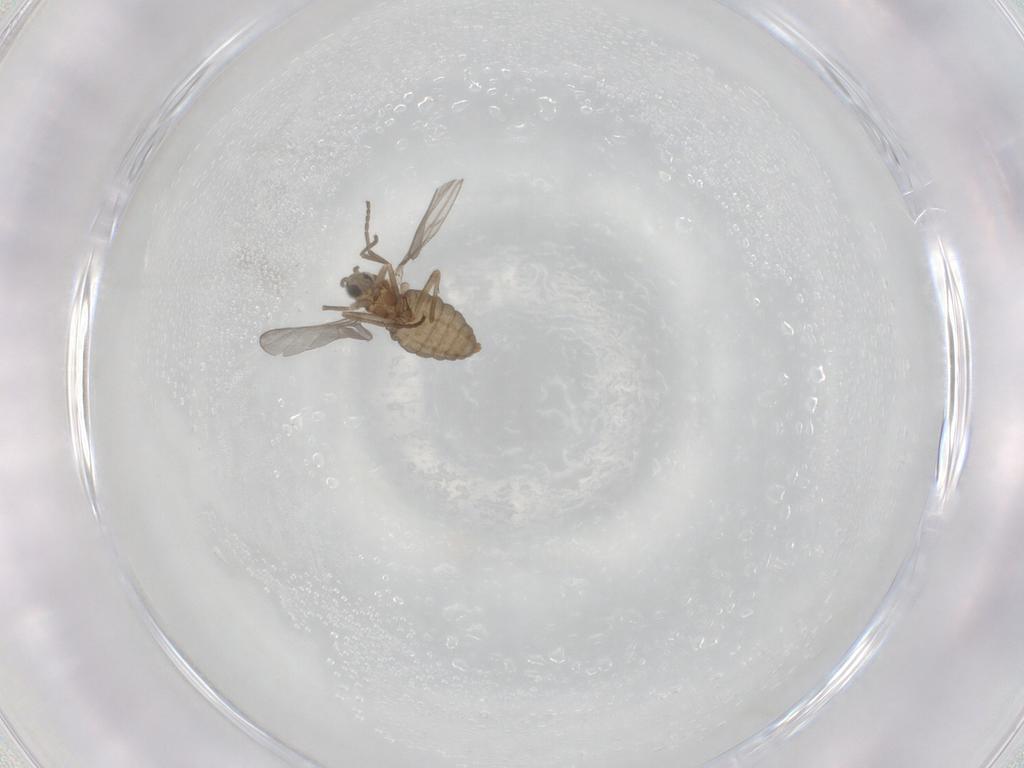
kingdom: Animalia
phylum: Arthropoda
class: Insecta
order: Diptera
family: Cecidomyiidae
